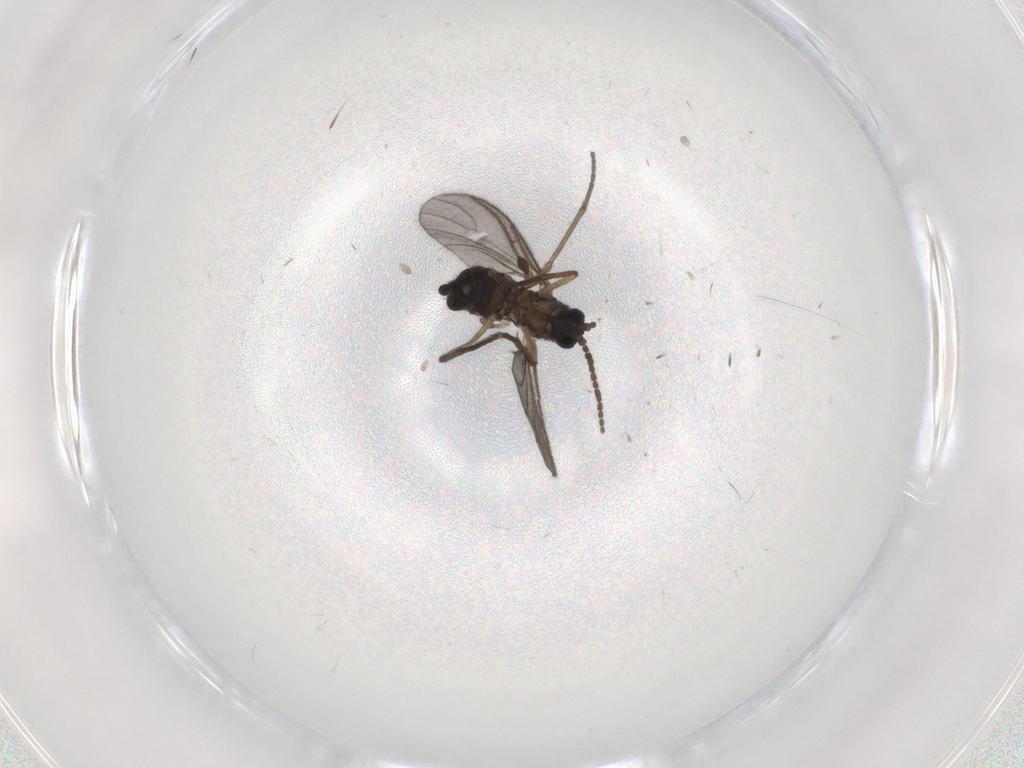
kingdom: Animalia
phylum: Arthropoda
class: Insecta
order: Diptera
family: Sciaridae
